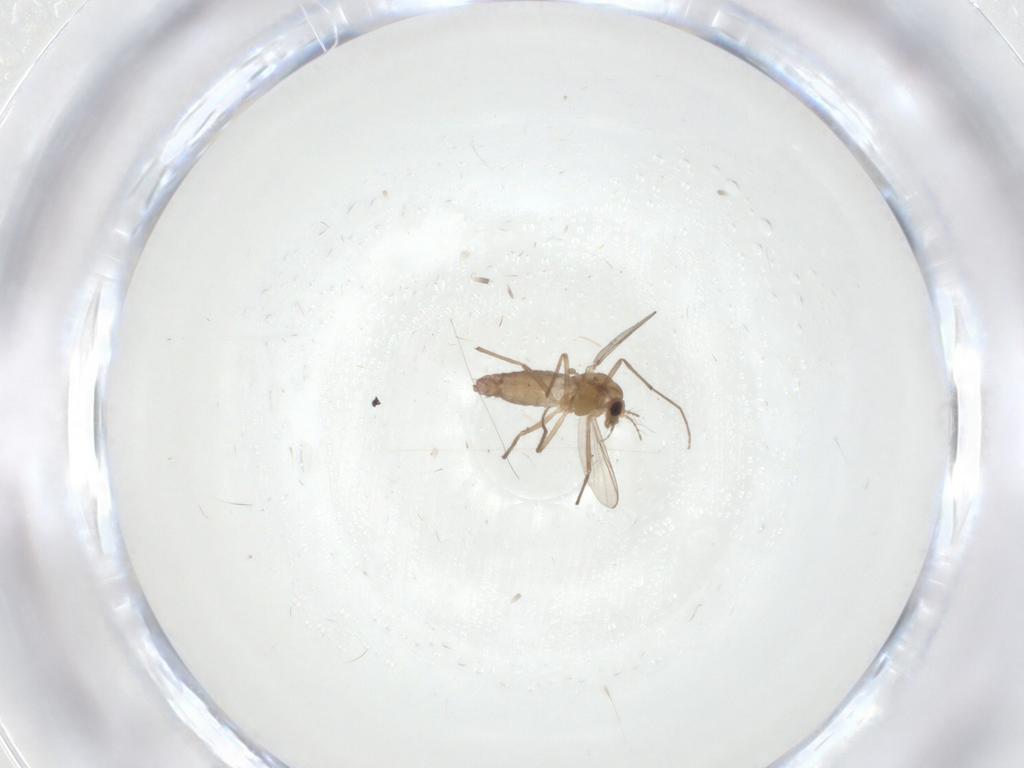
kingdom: Animalia
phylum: Arthropoda
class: Insecta
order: Diptera
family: Chironomidae
